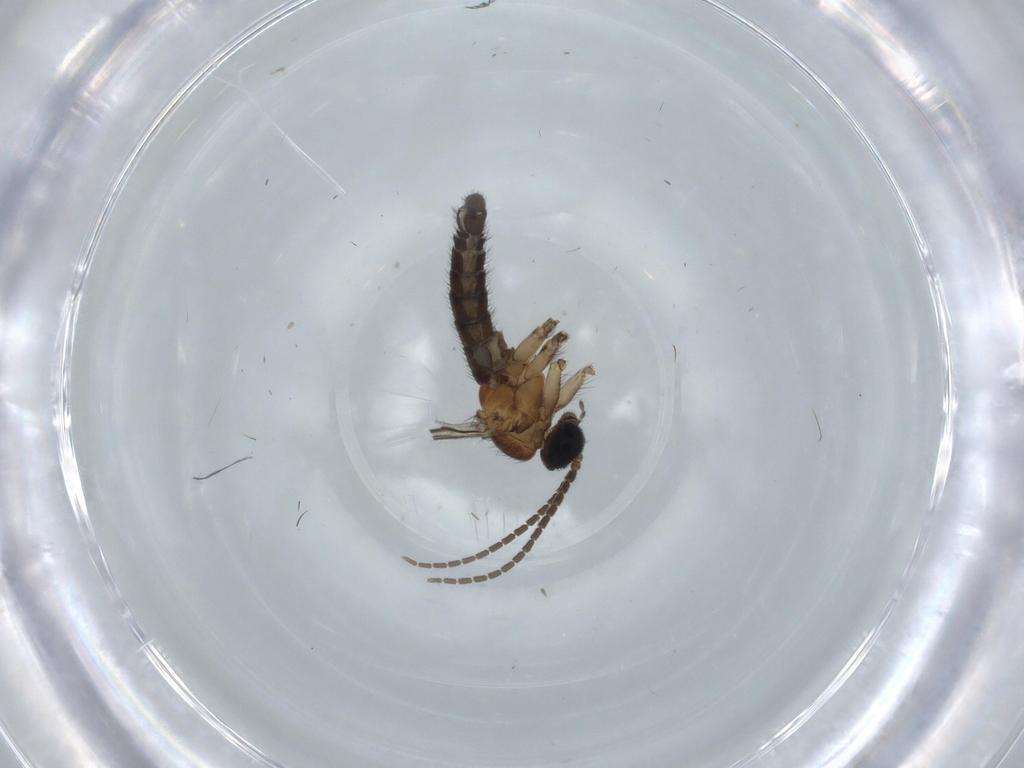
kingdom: Animalia
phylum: Arthropoda
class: Insecta
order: Diptera
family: Sciaridae
